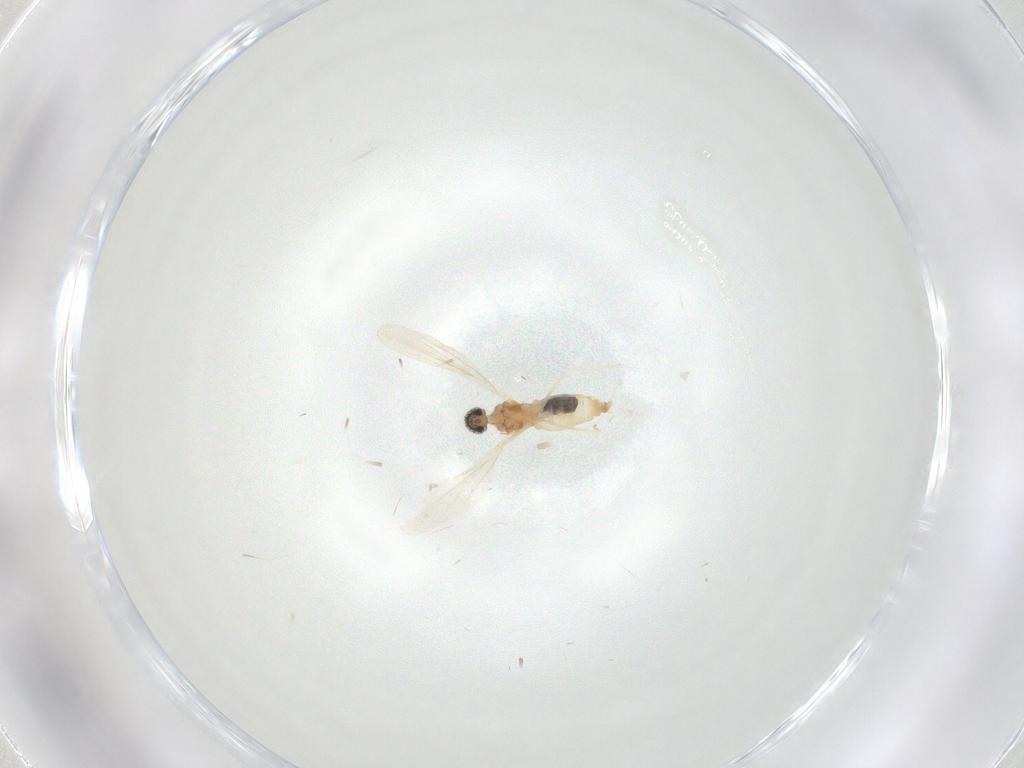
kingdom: Animalia
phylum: Arthropoda
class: Insecta
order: Diptera
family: Cecidomyiidae
